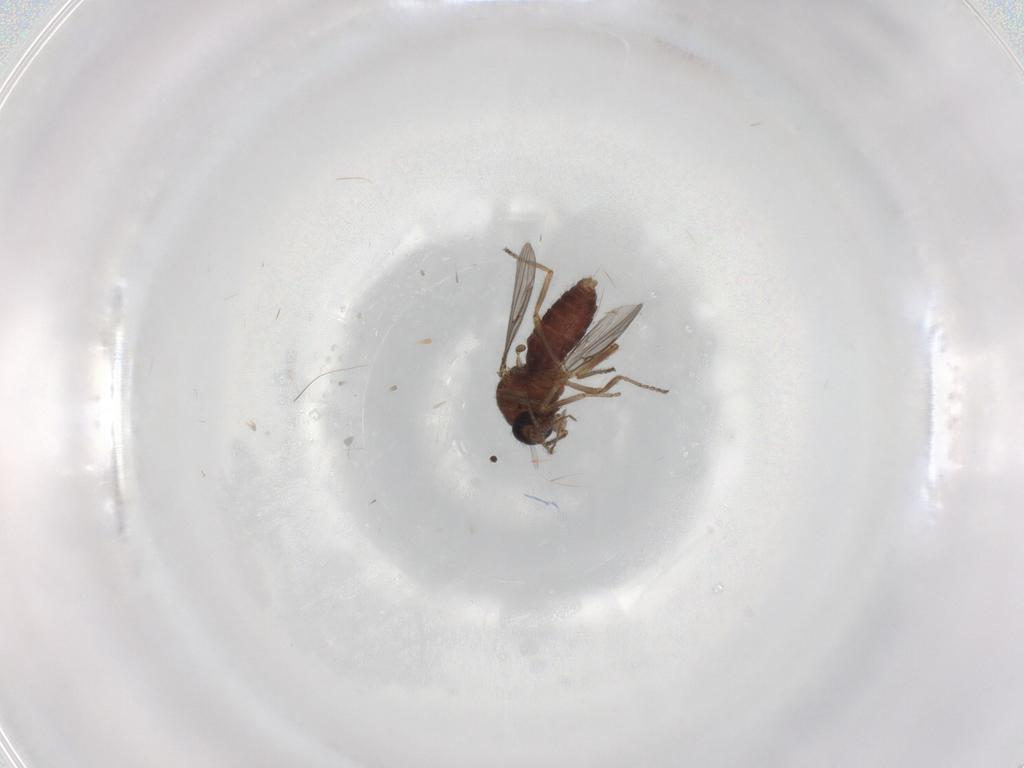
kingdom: Animalia
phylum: Arthropoda
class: Insecta
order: Diptera
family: Ceratopogonidae
